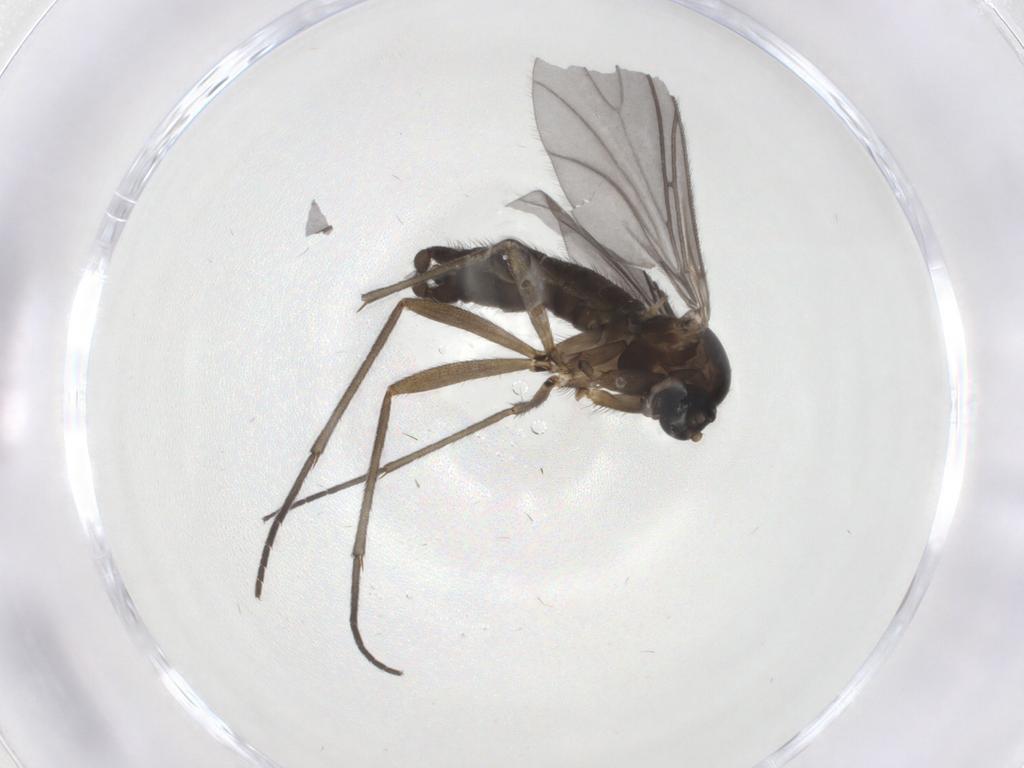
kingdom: Animalia
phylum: Arthropoda
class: Insecta
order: Diptera
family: Sciaridae
